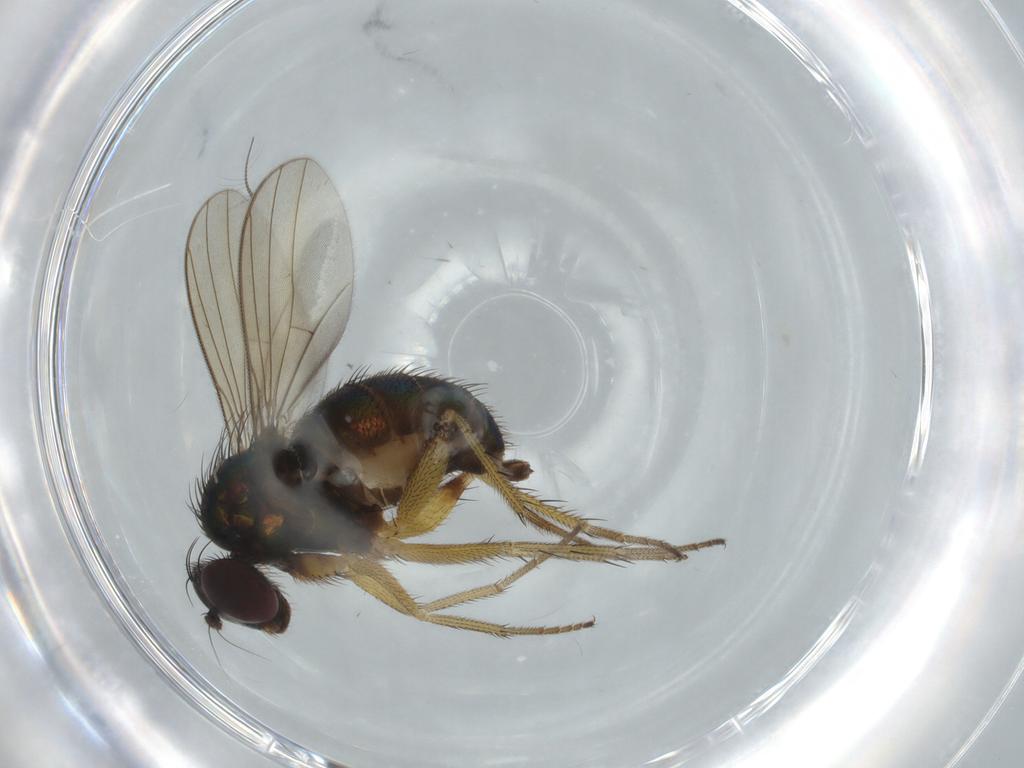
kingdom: Animalia
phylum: Arthropoda
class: Insecta
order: Diptera
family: Dolichopodidae
